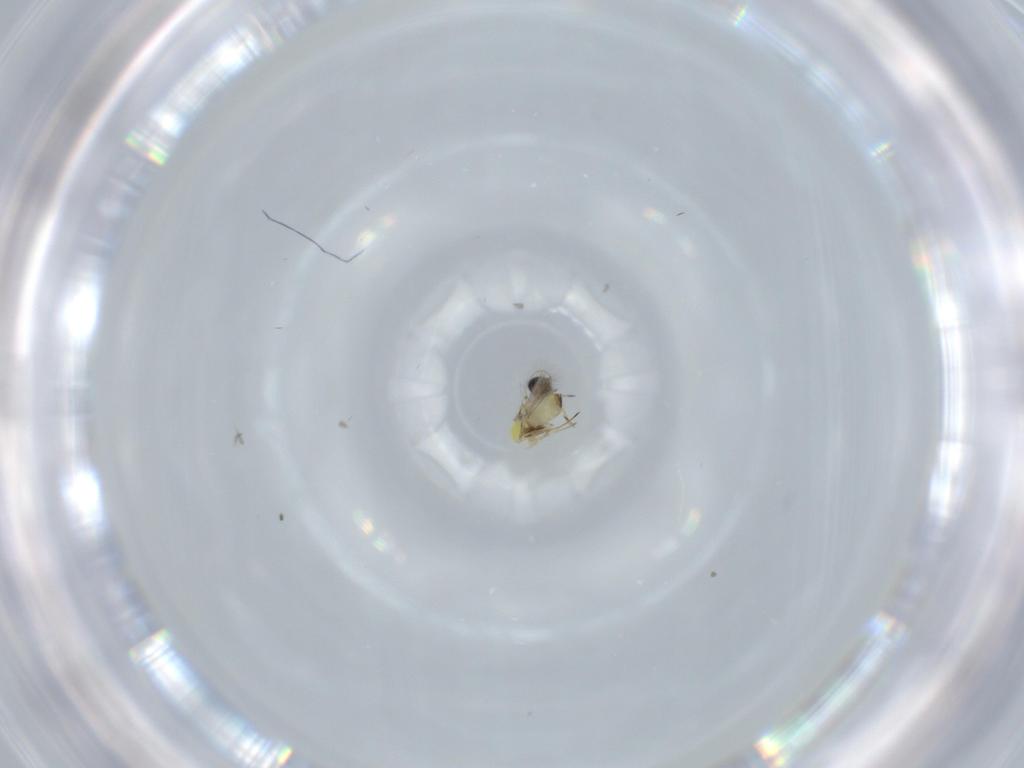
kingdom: Animalia
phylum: Arthropoda
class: Insecta
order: Hymenoptera
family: Trichogrammatidae
